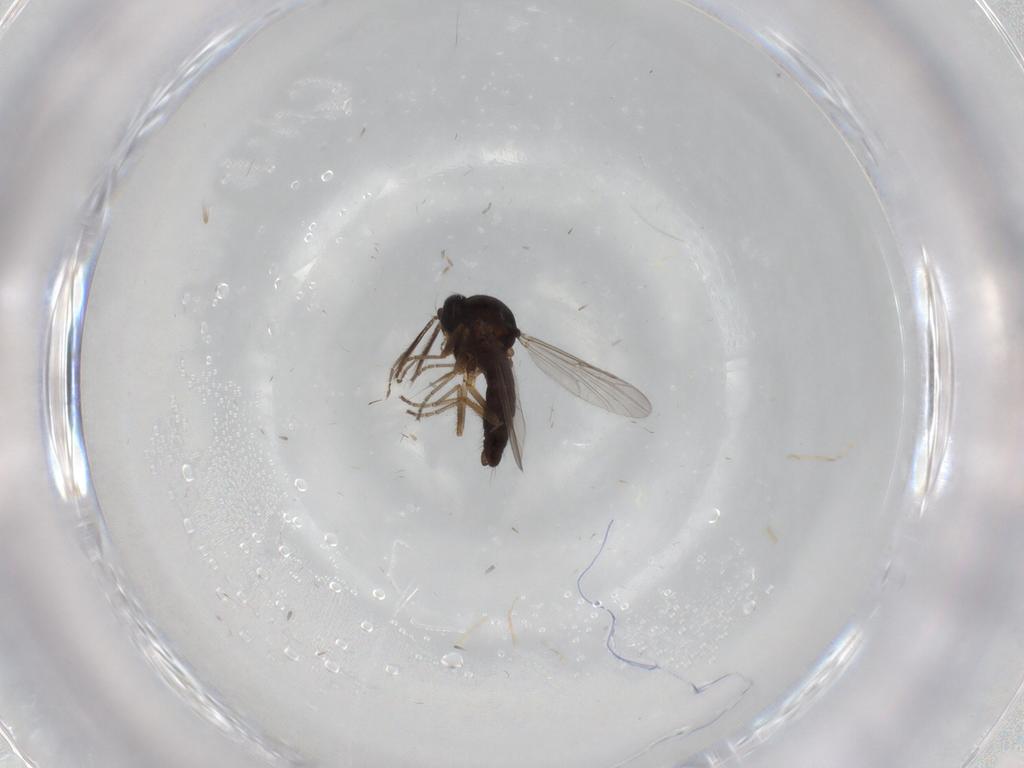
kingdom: Animalia
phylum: Arthropoda
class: Insecta
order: Diptera
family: Ceratopogonidae
